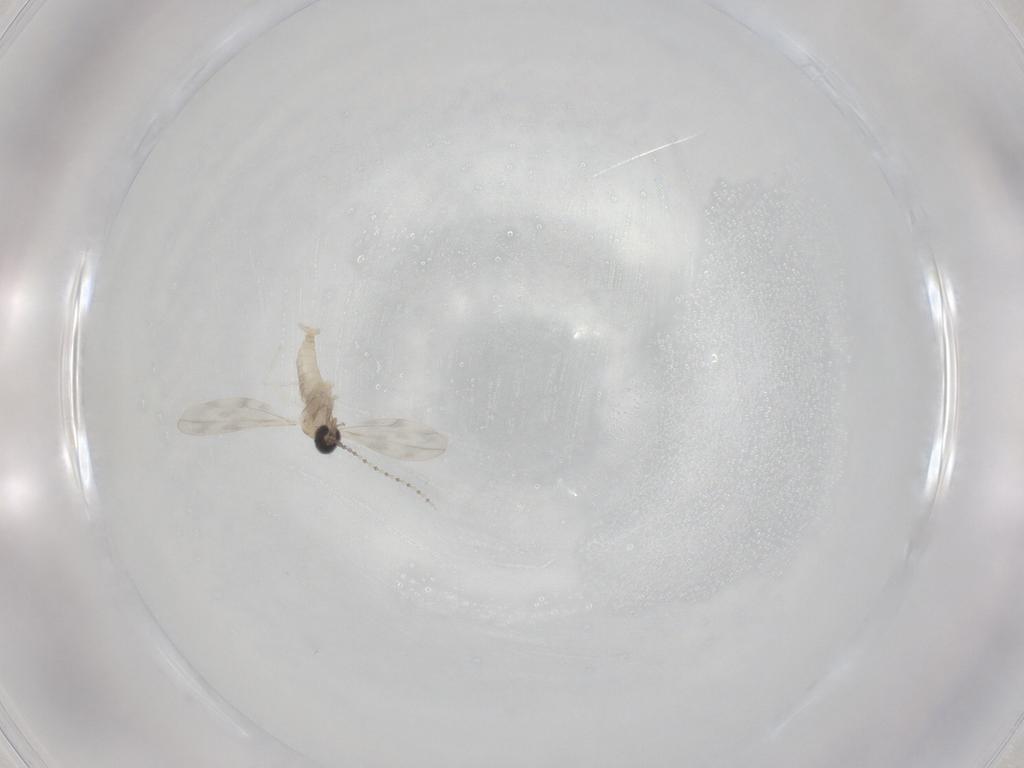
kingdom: Animalia
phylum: Arthropoda
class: Insecta
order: Diptera
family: Cecidomyiidae
